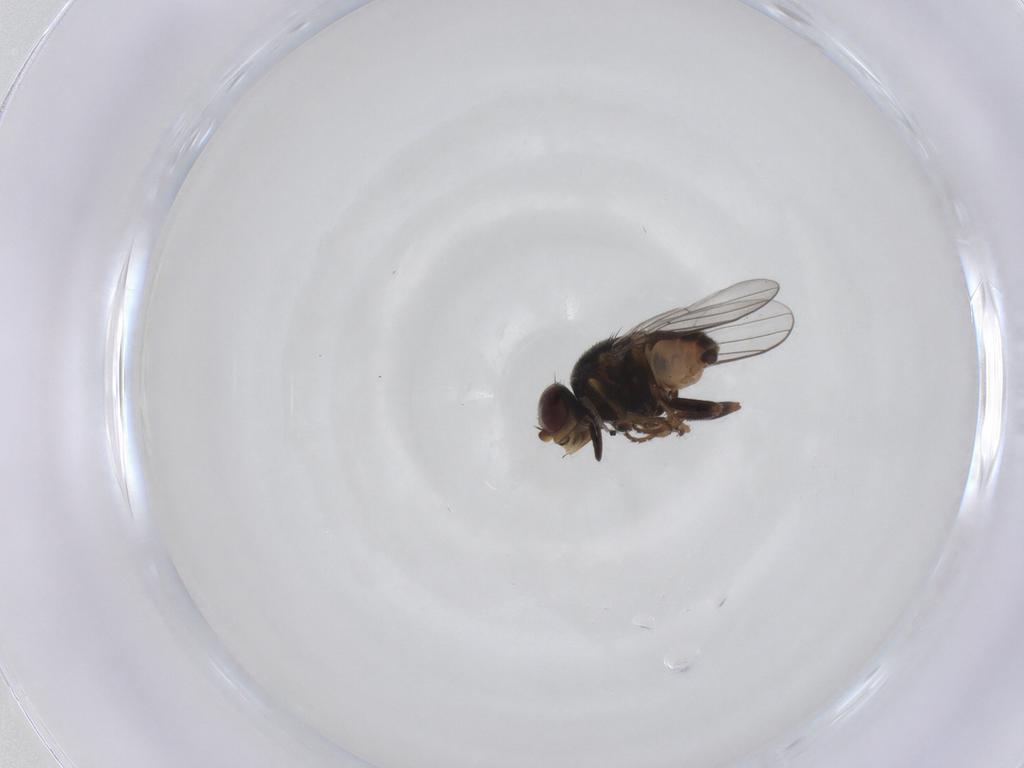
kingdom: Animalia
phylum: Arthropoda
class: Insecta
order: Diptera
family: Chloropidae
